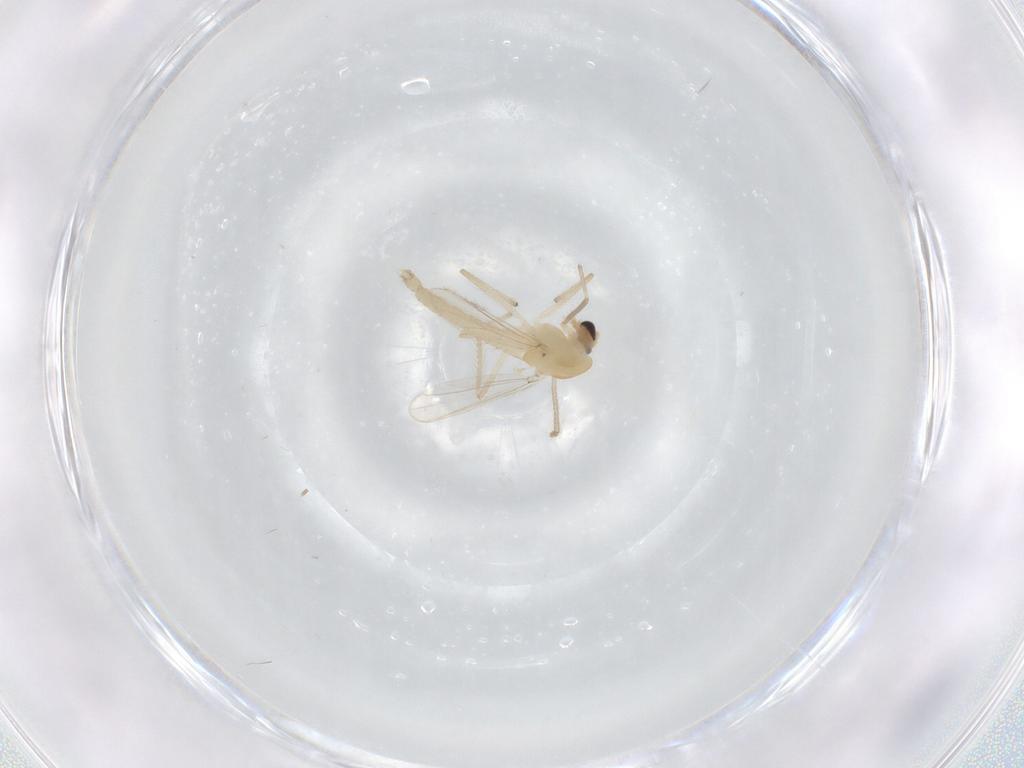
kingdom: Animalia
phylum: Arthropoda
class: Insecta
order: Diptera
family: Chironomidae
